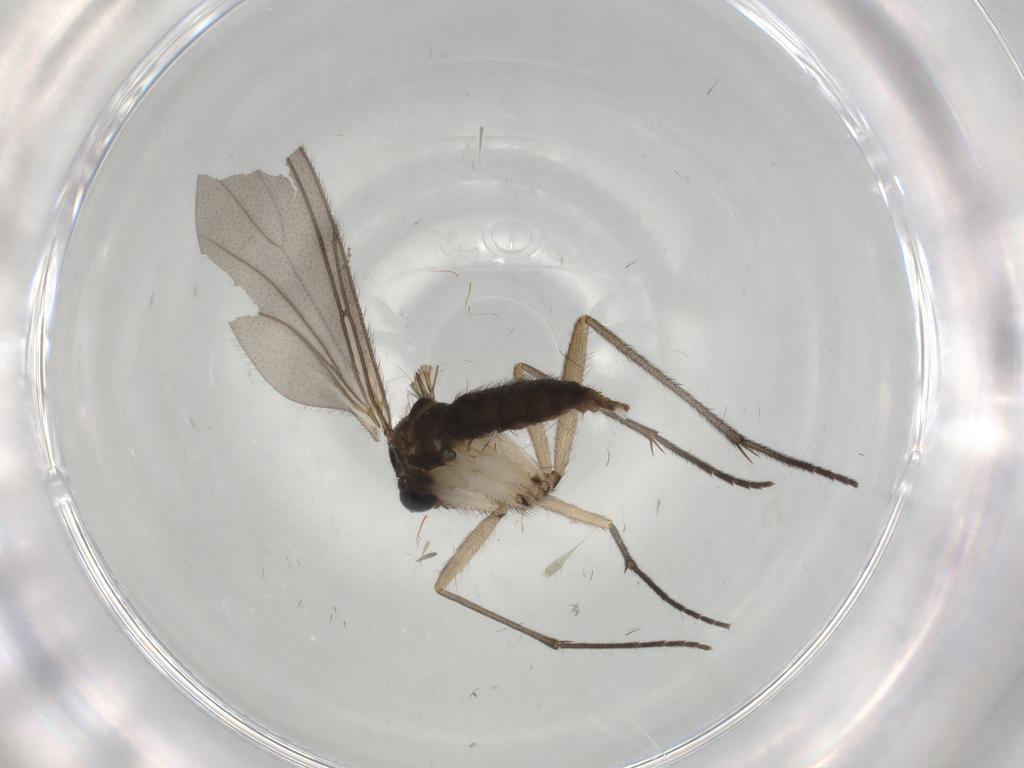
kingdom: Animalia
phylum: Arthropoda
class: Insecta
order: Diptera
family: Sciaridae
